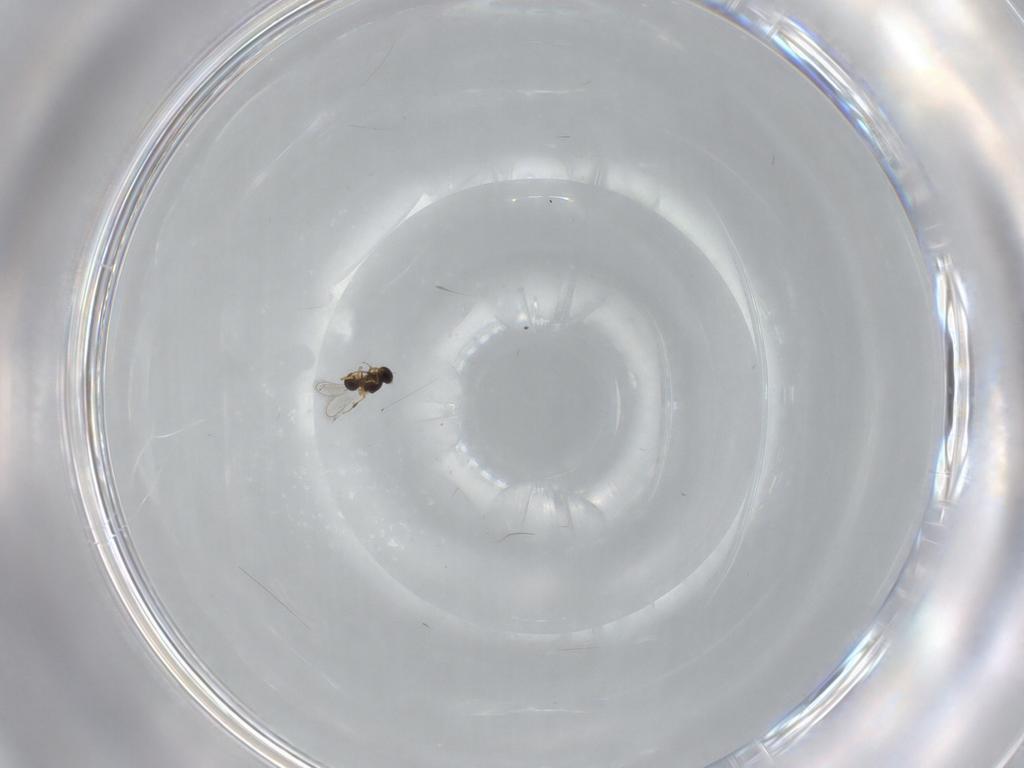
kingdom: Animalia
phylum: Arthropoda
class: Insecta
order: Hymenoptera
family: Platygastridae
